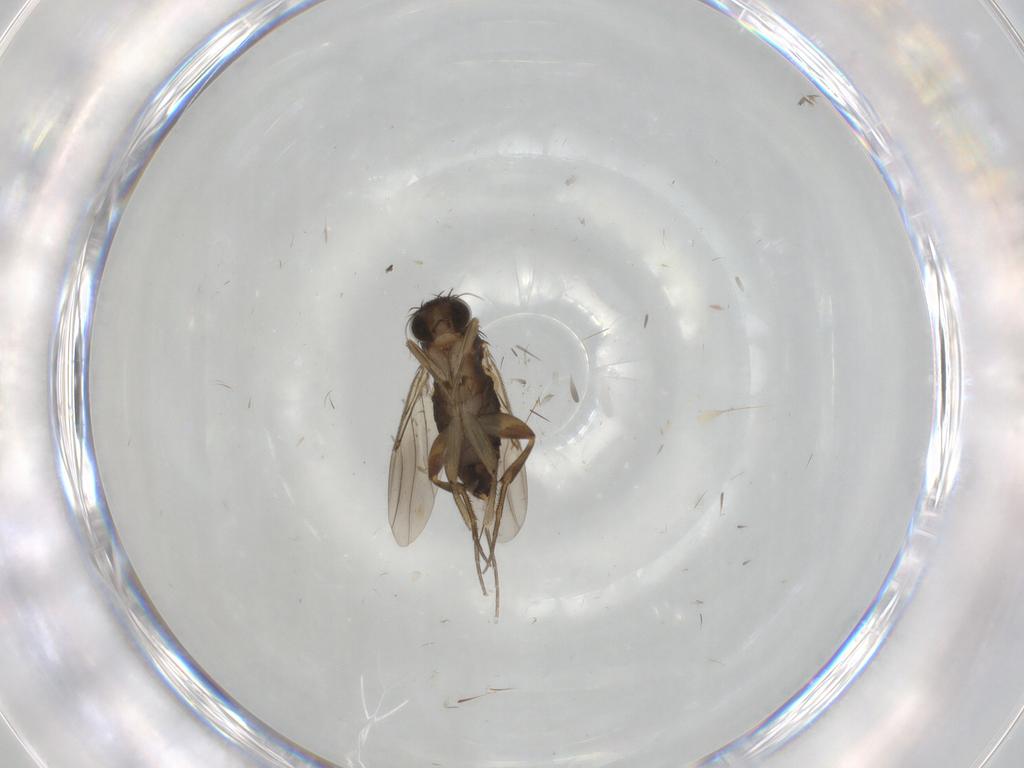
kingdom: Animalia
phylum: Arthropoda
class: Insecta
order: Diptera
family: Phoridae
